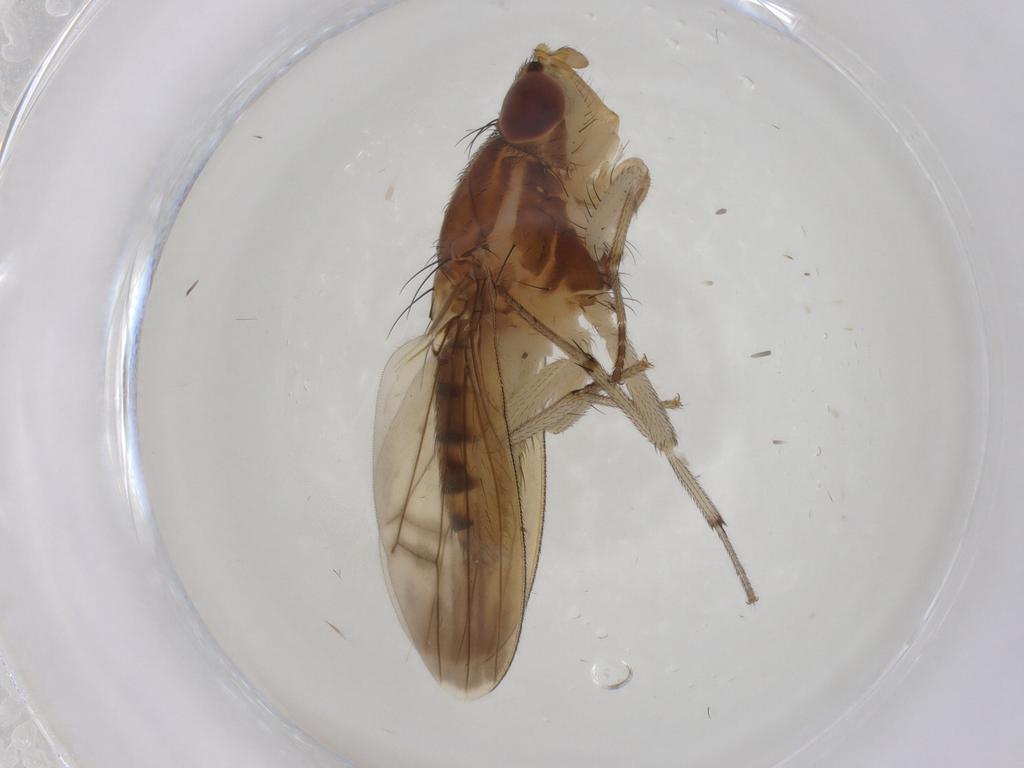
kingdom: Animalia
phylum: Arthropoda
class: Insecta
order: Diptera
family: Lauxaniidae
